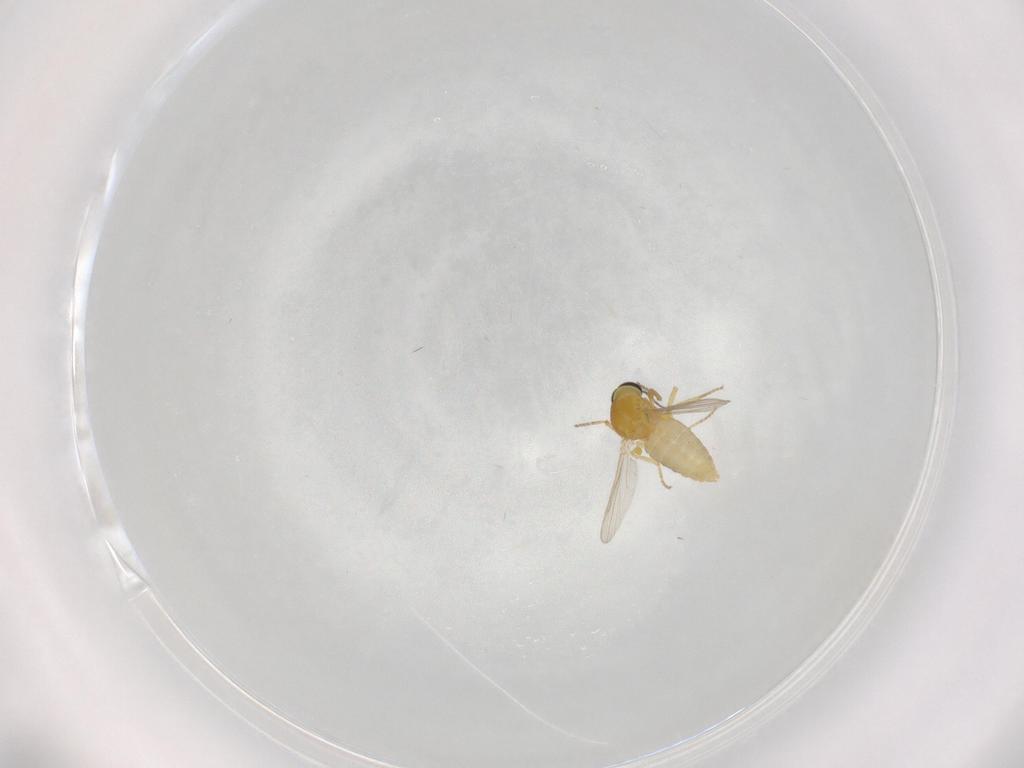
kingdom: Animalia
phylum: Arthropoda
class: Insecta
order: Diptera
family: Ceratopogonidae
